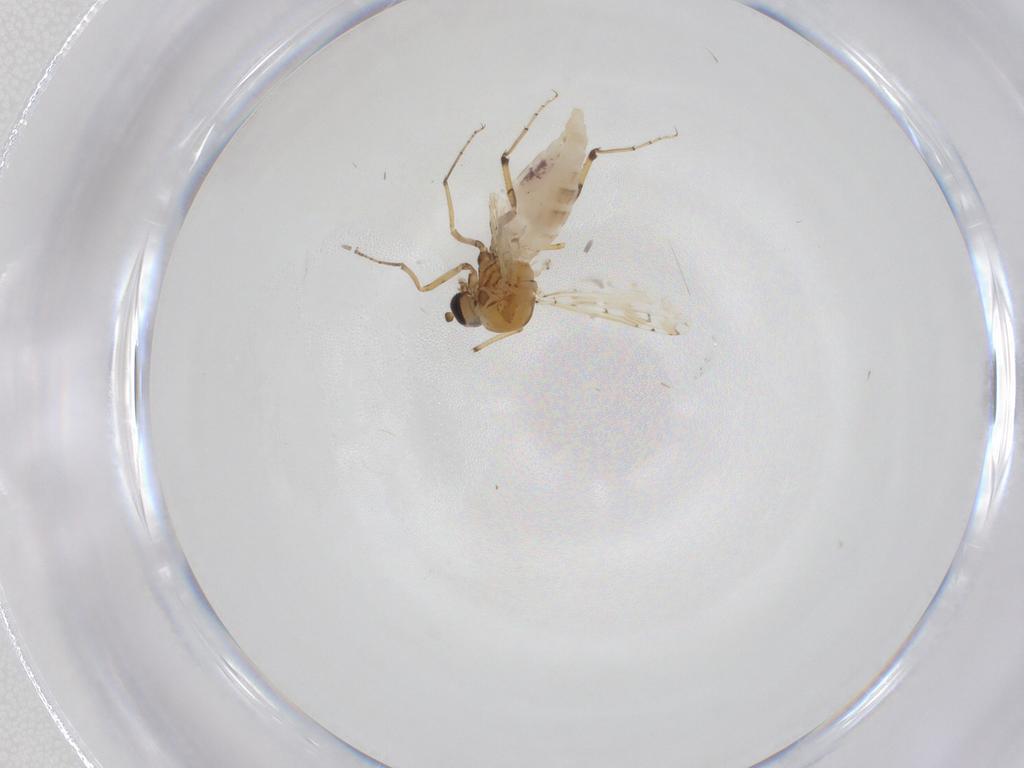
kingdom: Animalia
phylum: Arthropoda
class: Insecta
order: Diptera
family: Ceratopogonidae
